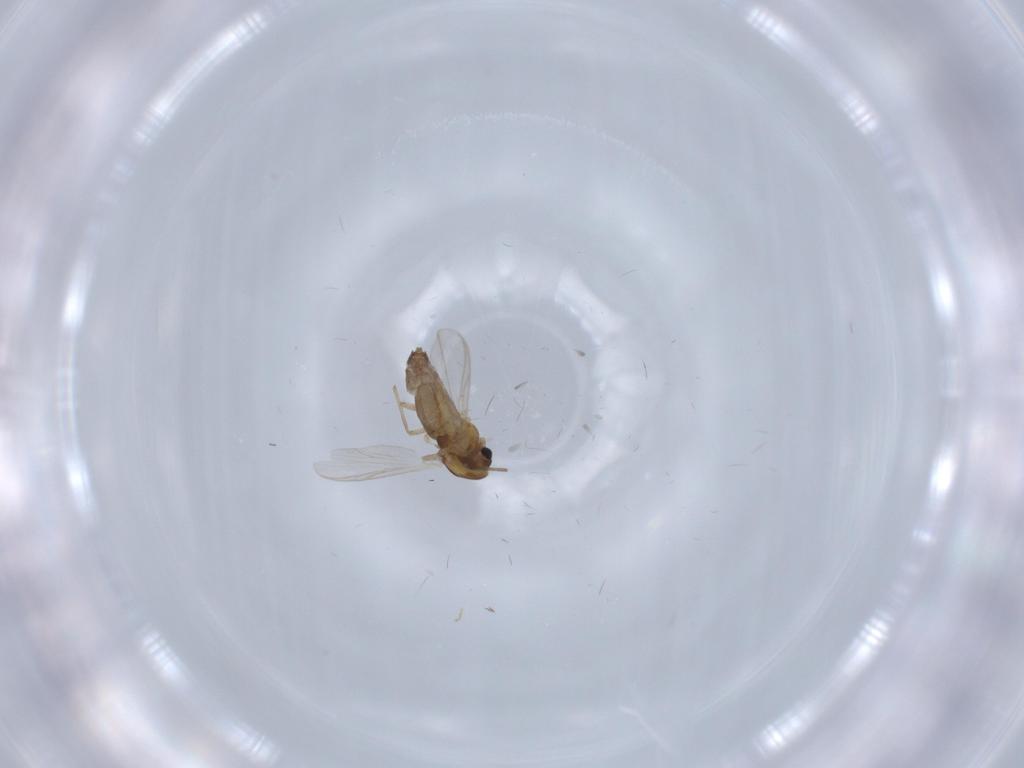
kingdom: Animalia
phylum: Arthropoda
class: Insecta
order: Diptera
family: Chironomidae
